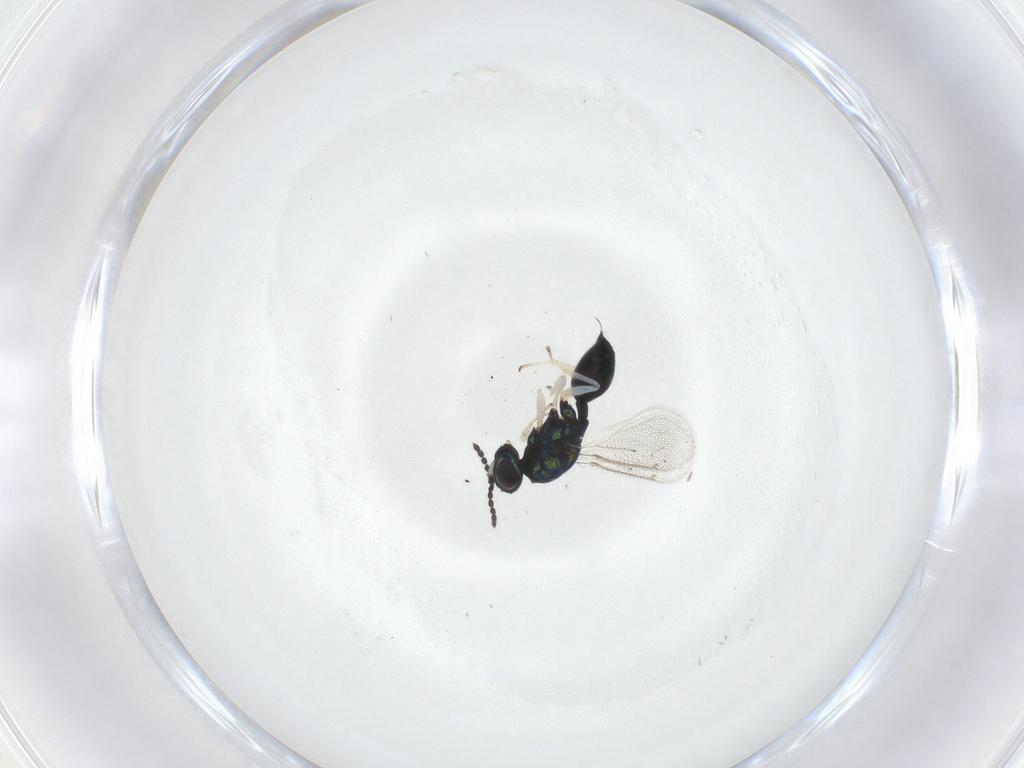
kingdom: Animalia
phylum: Arthropoda
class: Insecta
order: Hymenoptera
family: Eulophidae
